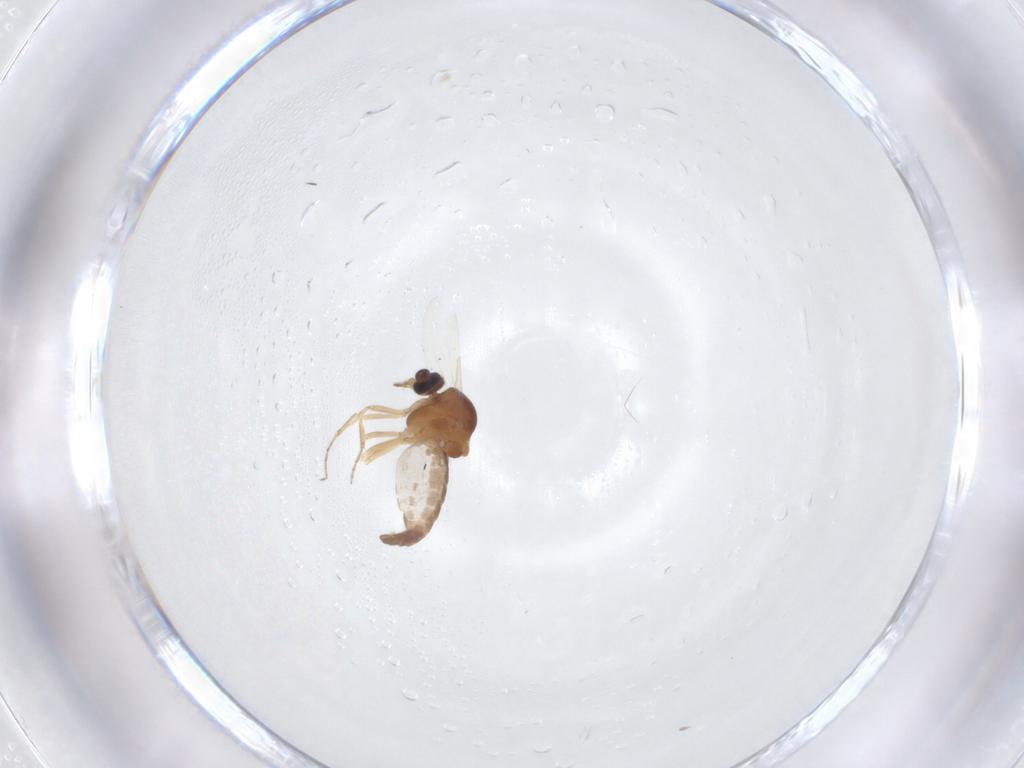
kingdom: Animalia
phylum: Arthropoda
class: Insecta
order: Diptera
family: Ceratopogonidae
